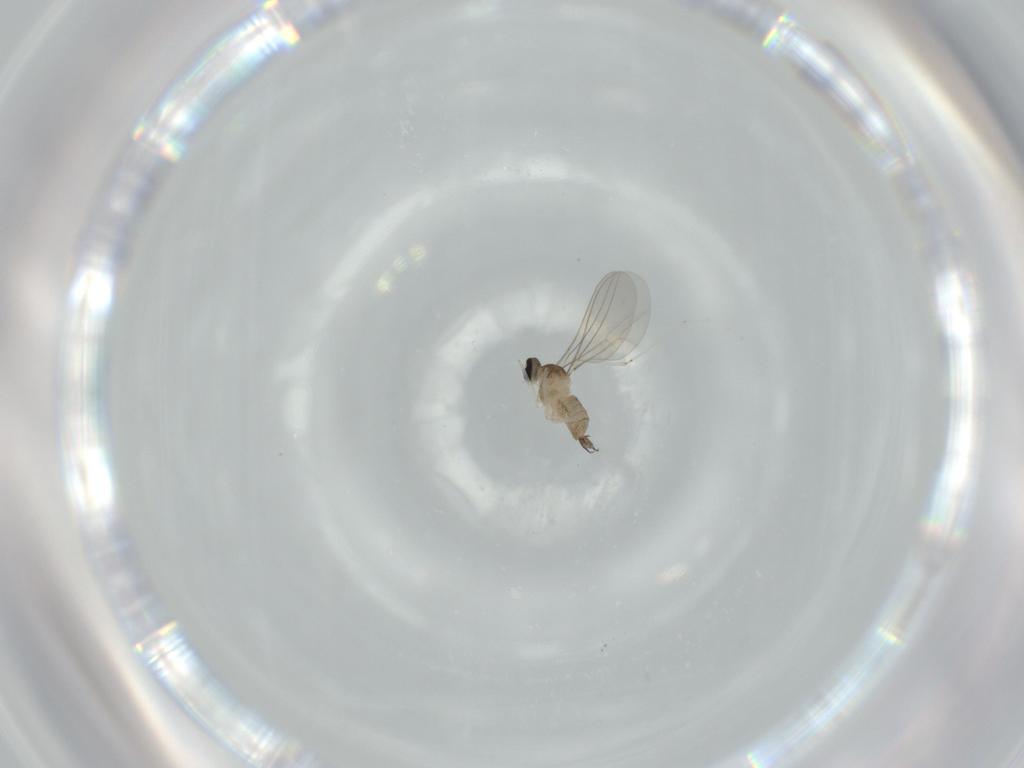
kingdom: Animalia
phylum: Arthropoda
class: Insecta
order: Diptera
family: Cecidomyiidae
